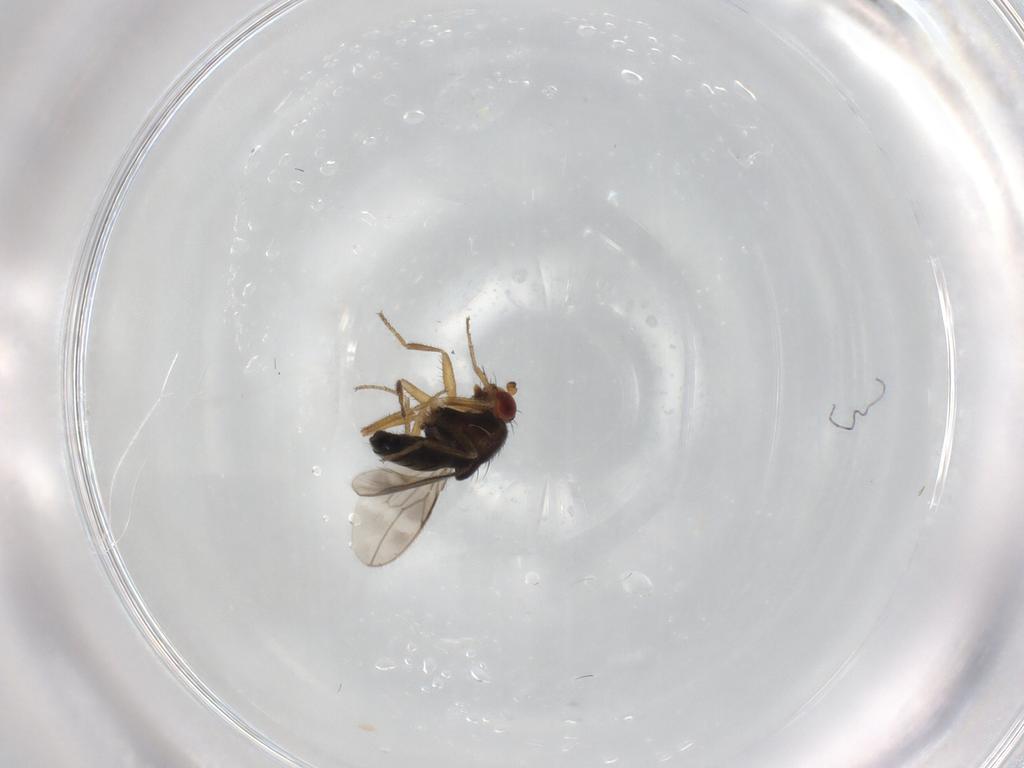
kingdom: Animalia
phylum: Arthropoda
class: Insecta
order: Diptera
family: Sphaeroceridae
